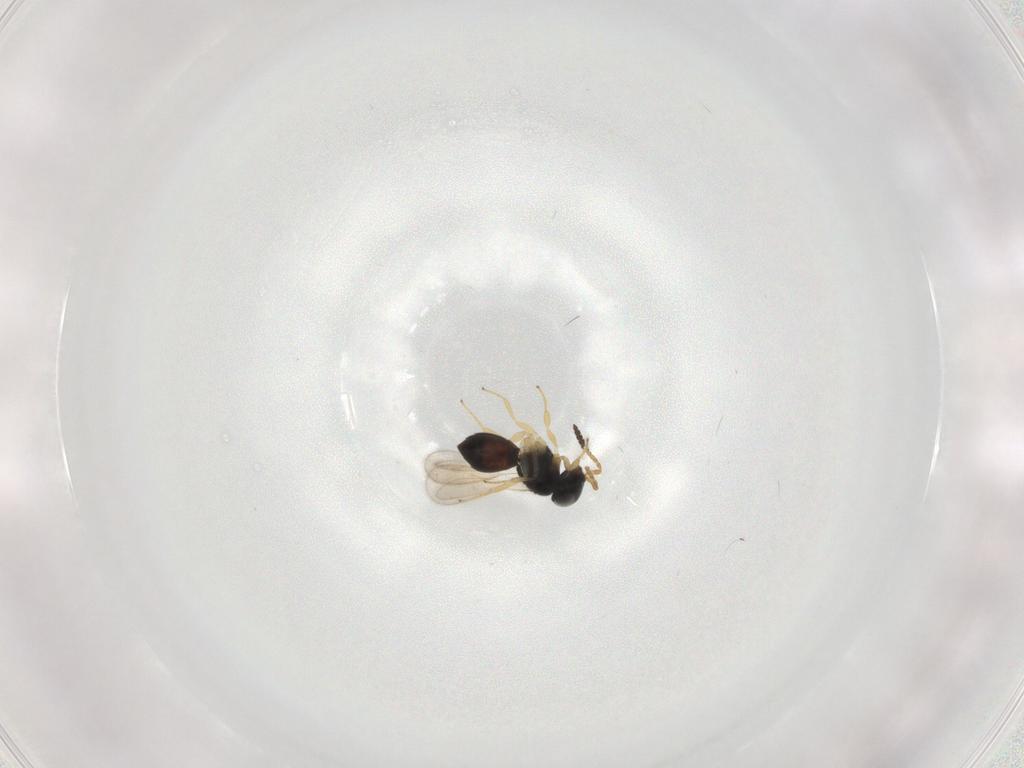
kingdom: Animalia
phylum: Arthropoda
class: Insecta
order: Hymenoptera
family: Scelionidae
